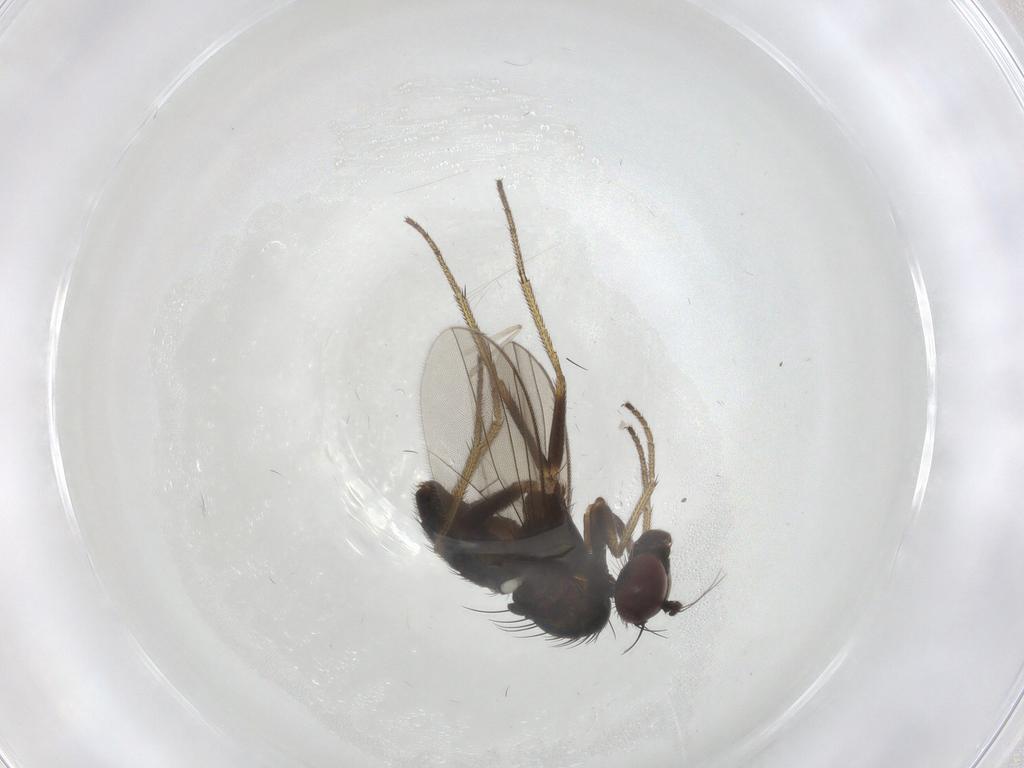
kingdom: Animalia
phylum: Arthropoda
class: Insecta
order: Diptera
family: Dolichopodidae
